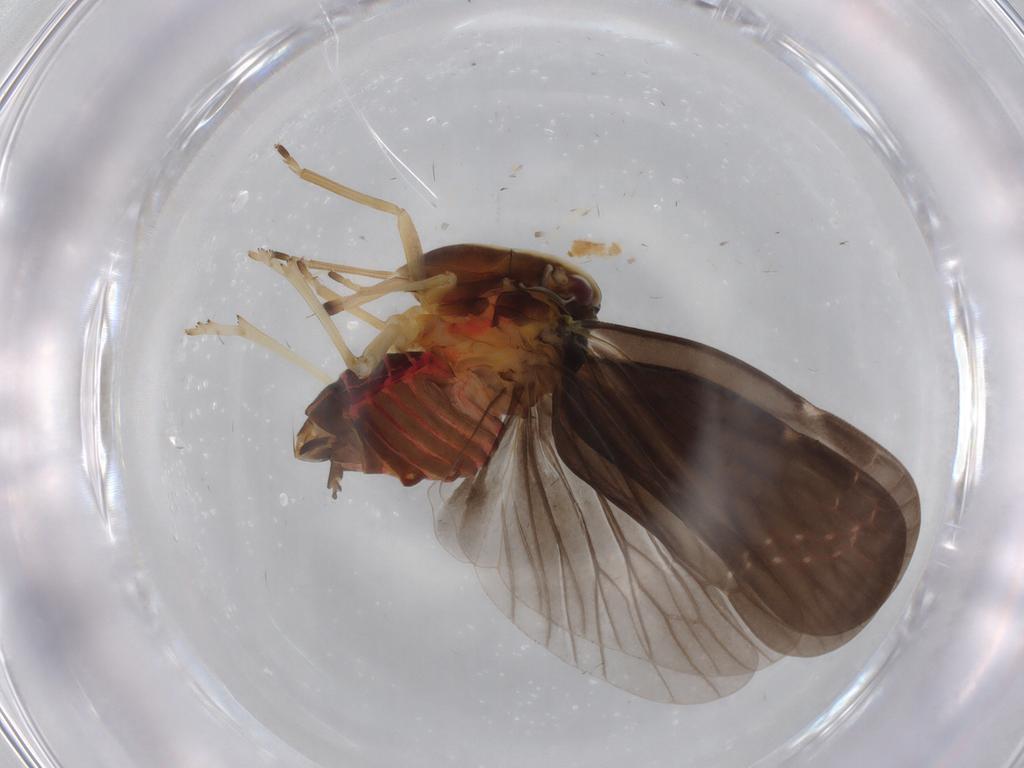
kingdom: Animalia
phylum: Arthropoda
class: Insecta
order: Hemiptera
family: Derbidae
